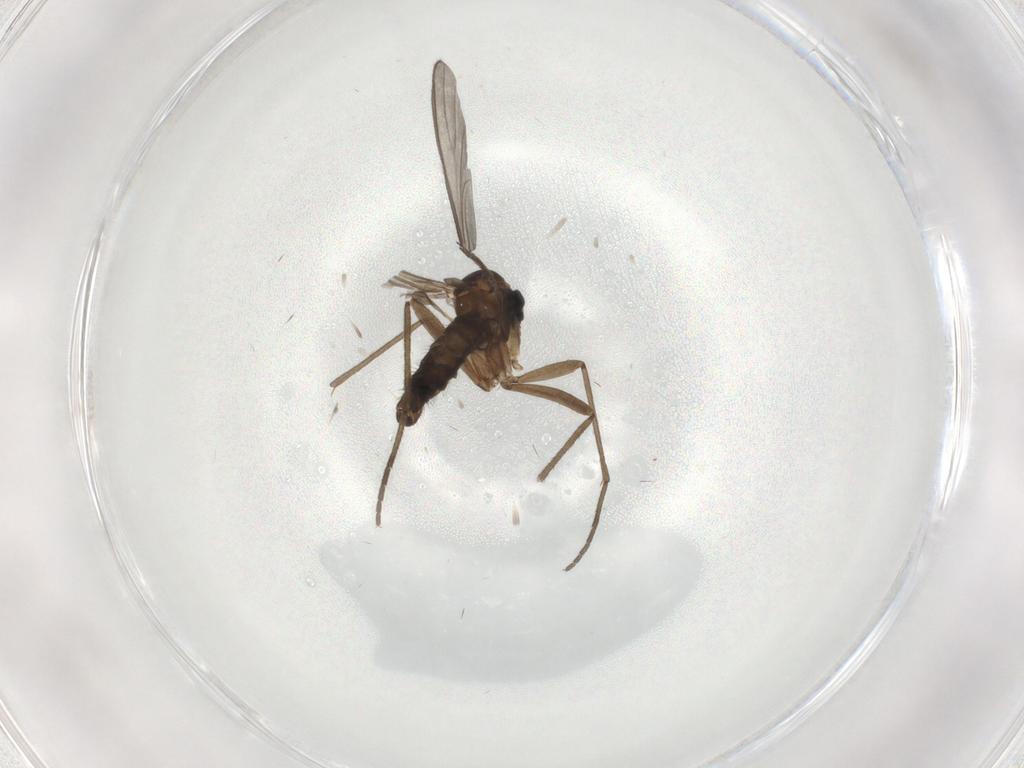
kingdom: Animalia
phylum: Arthropoda
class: Insecta
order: Diptera
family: Sciaridae
